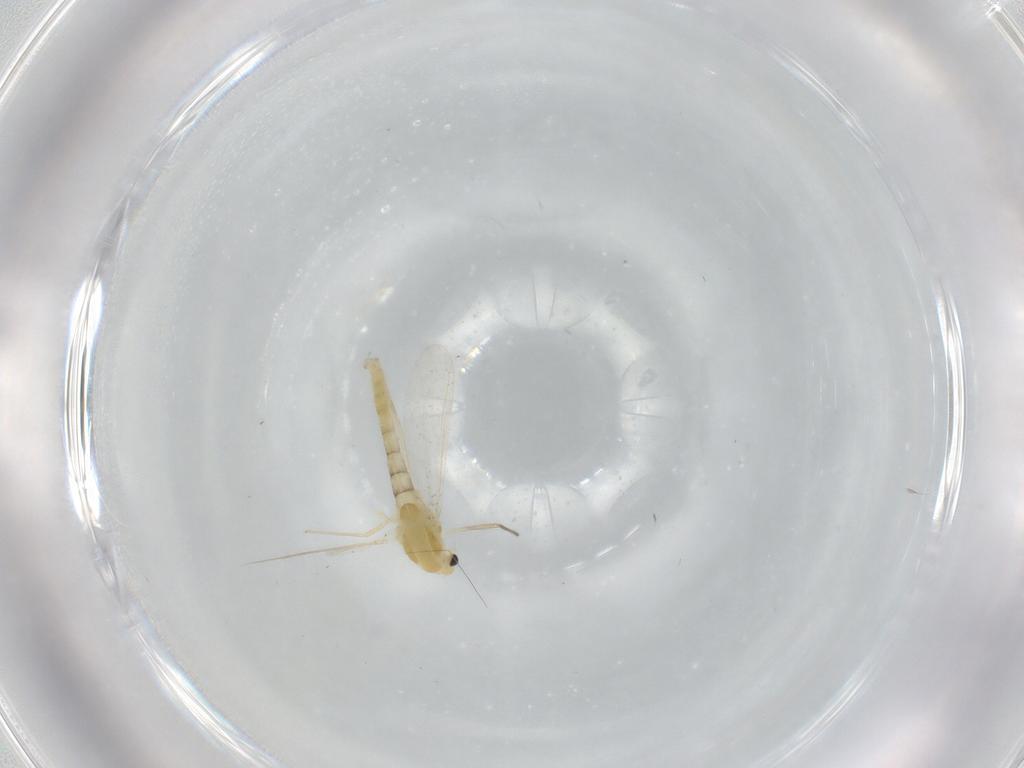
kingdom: Animalia
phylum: Arthropoda
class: Insecta
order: Diptera
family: Chironomidae
